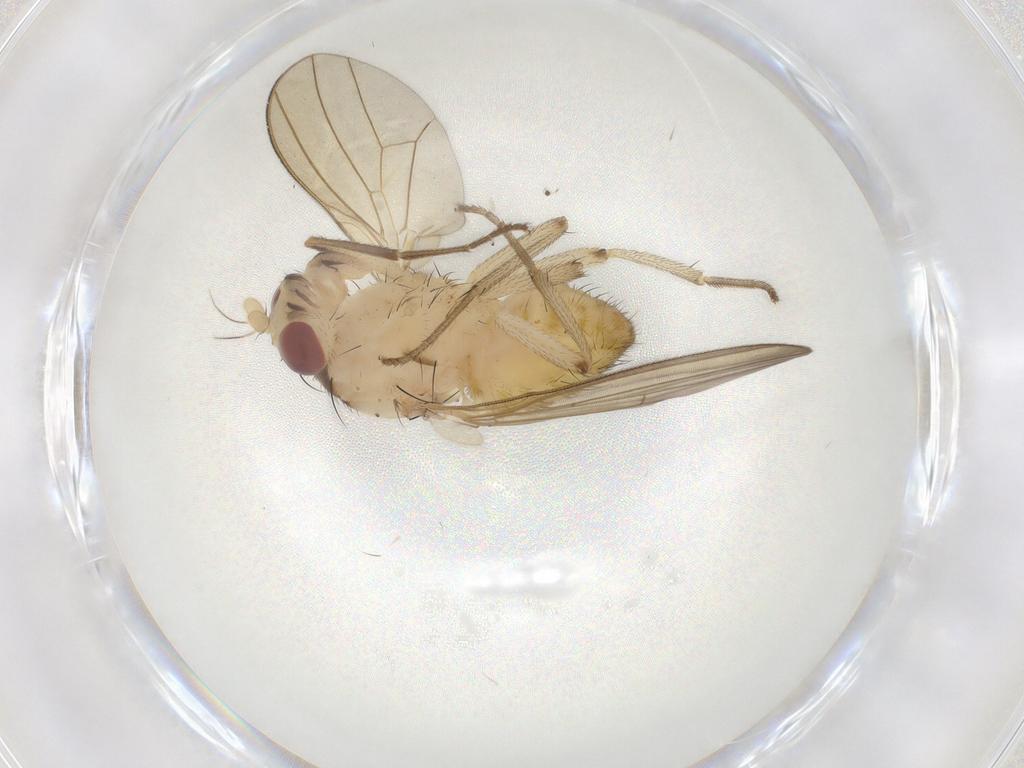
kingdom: Animalia
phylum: Arthropoda
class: Insecta
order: Diptera
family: Lauxaniidae
